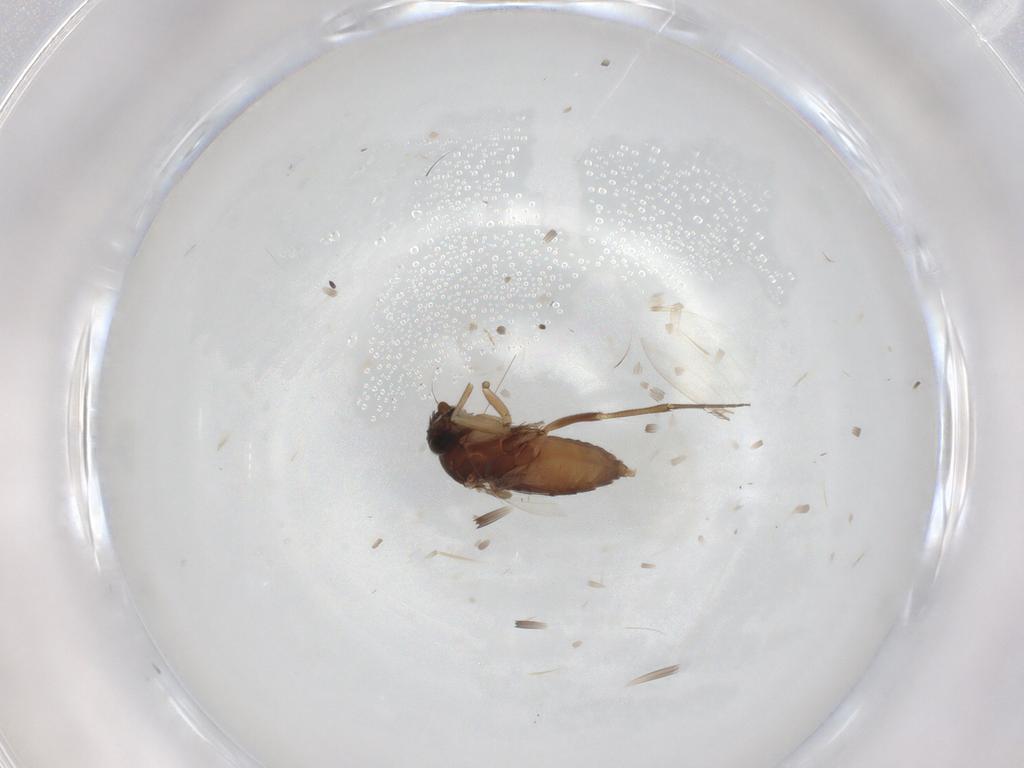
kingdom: Animalia
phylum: Arthropoda
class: Insecta
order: Diptera
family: Phoridae
